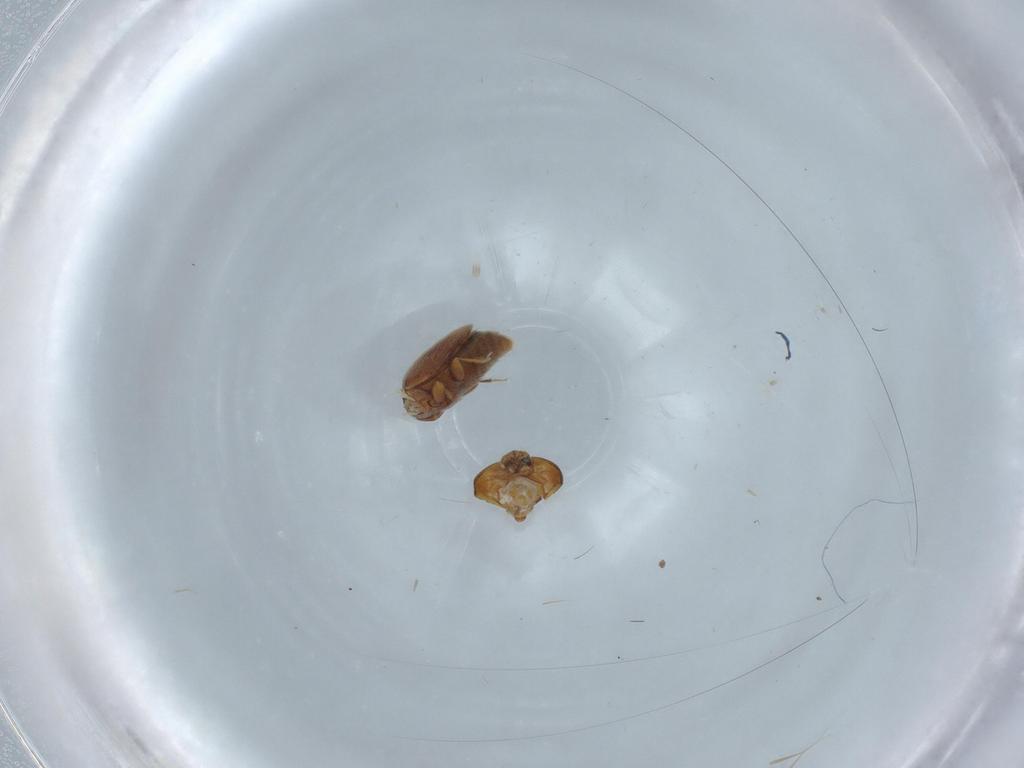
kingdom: Animalia
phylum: Arthropoda
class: Insecta
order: Coleoptera
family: Corylophidae
